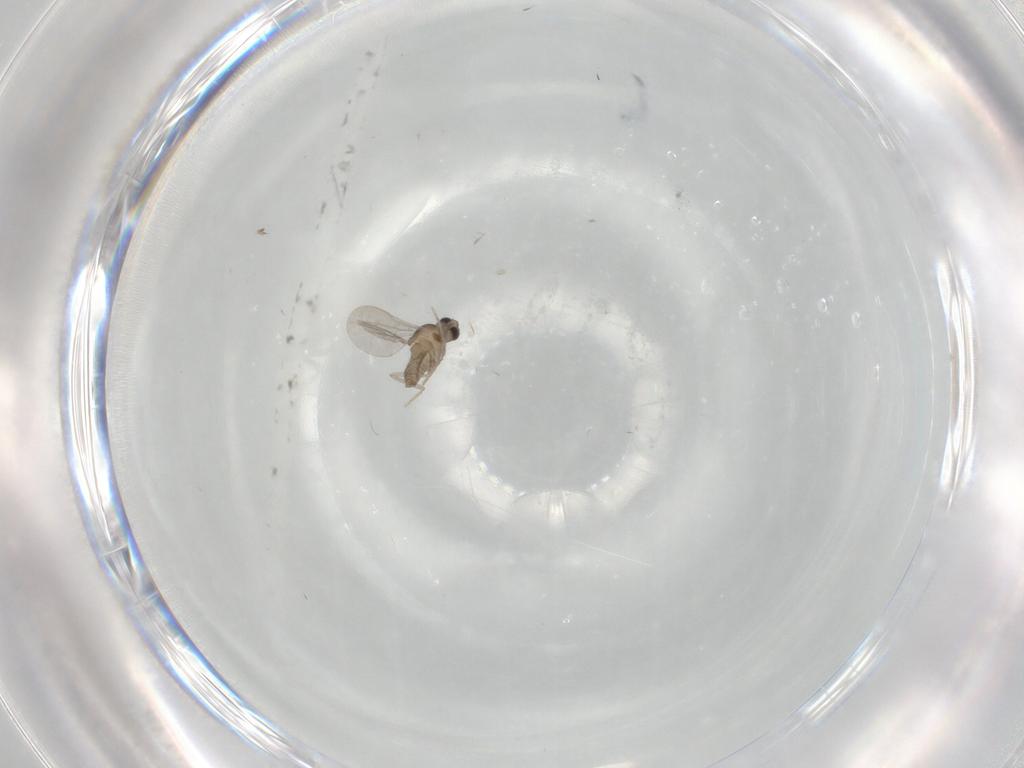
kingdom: Animalia
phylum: Arthropoda
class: Insecta
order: Diptera
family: Cecidomyiidae
